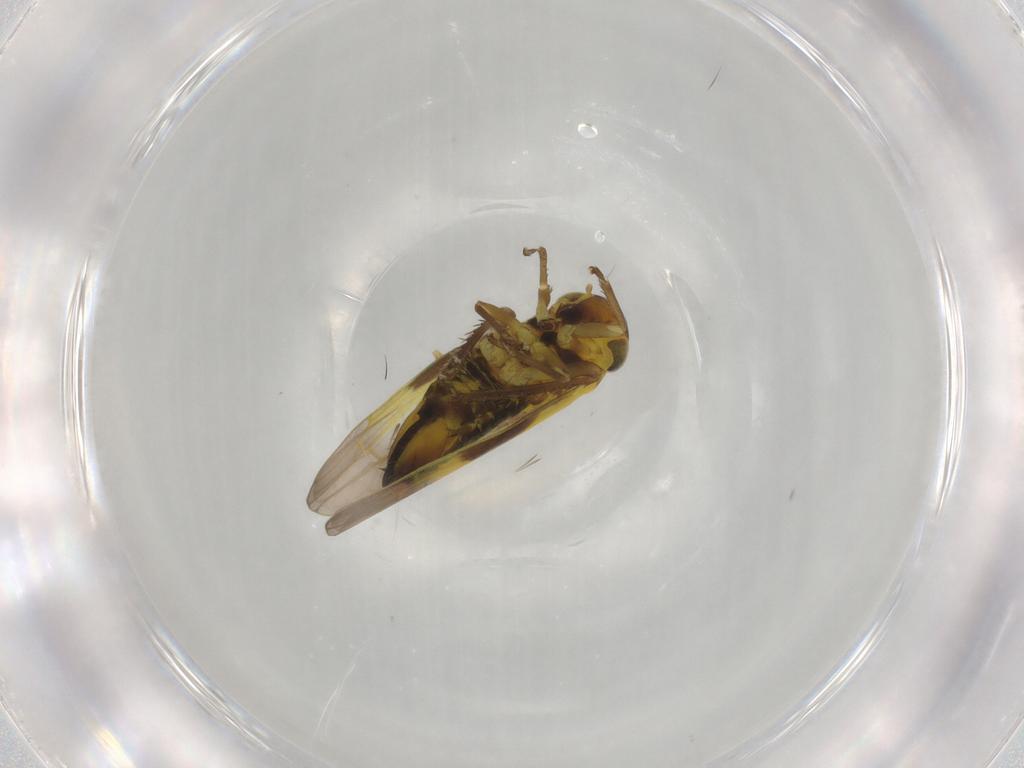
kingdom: Animalia
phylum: Arthropoda
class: Insecta
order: Hemiptera
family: Cicadellidae
